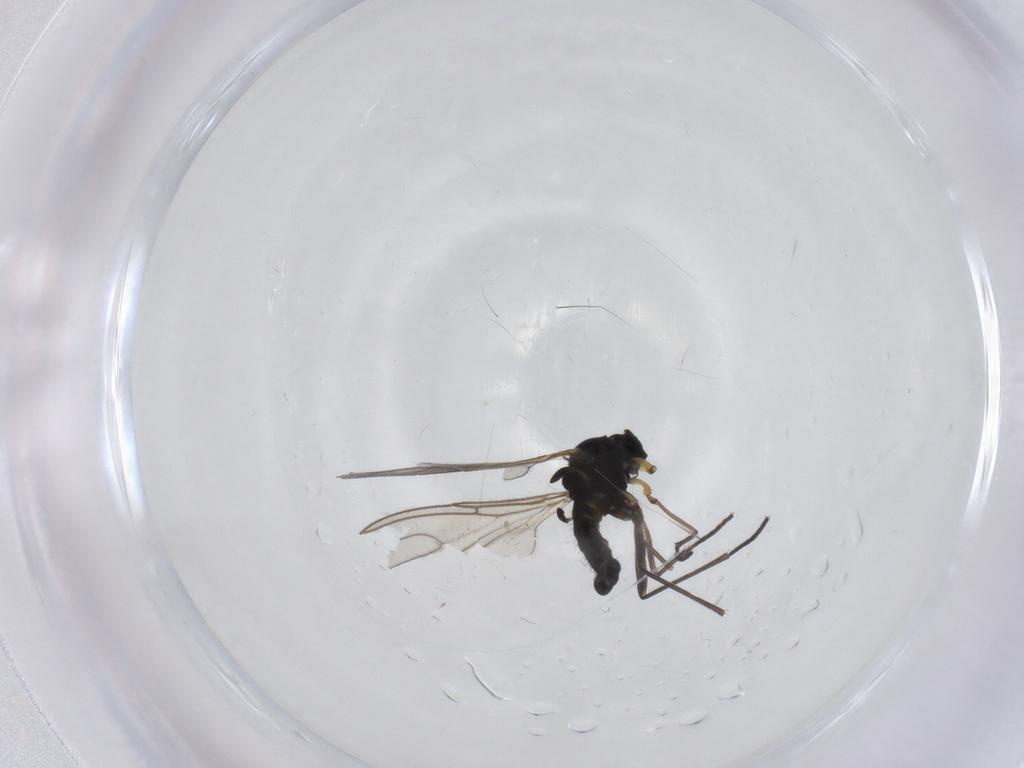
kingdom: Animalia
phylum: Arthropoda
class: Insecta
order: Diptera
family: Sciaridae
